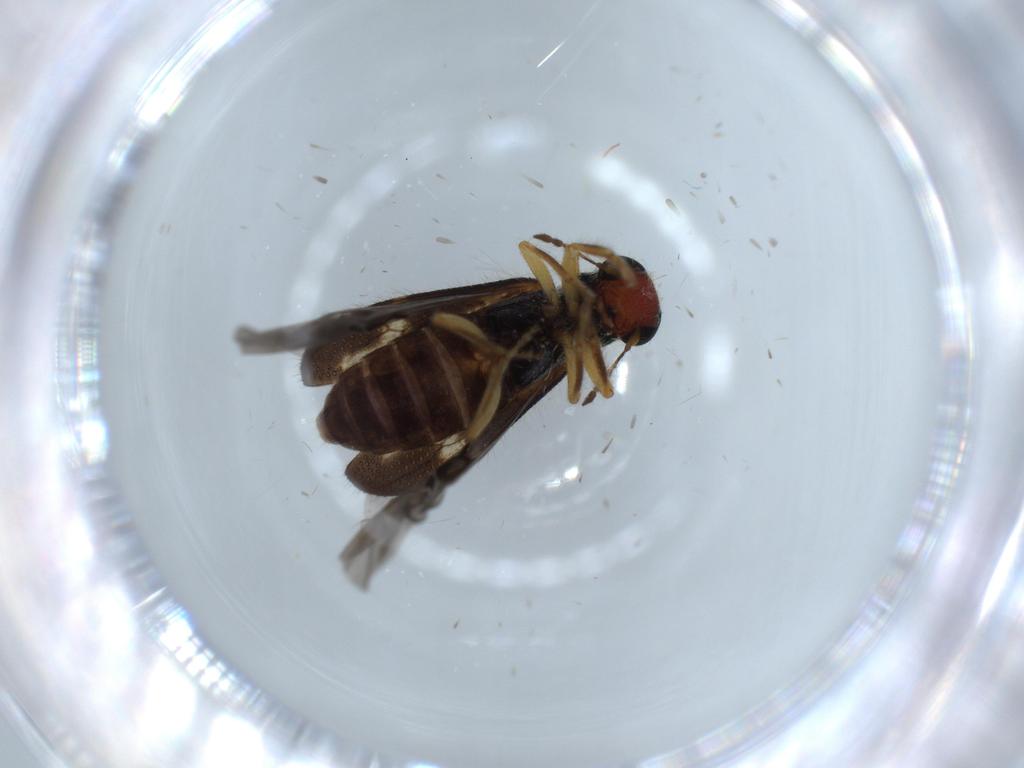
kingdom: Animalia
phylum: Arthropoda
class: Insecta
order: Coleoptera
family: Cleridae
